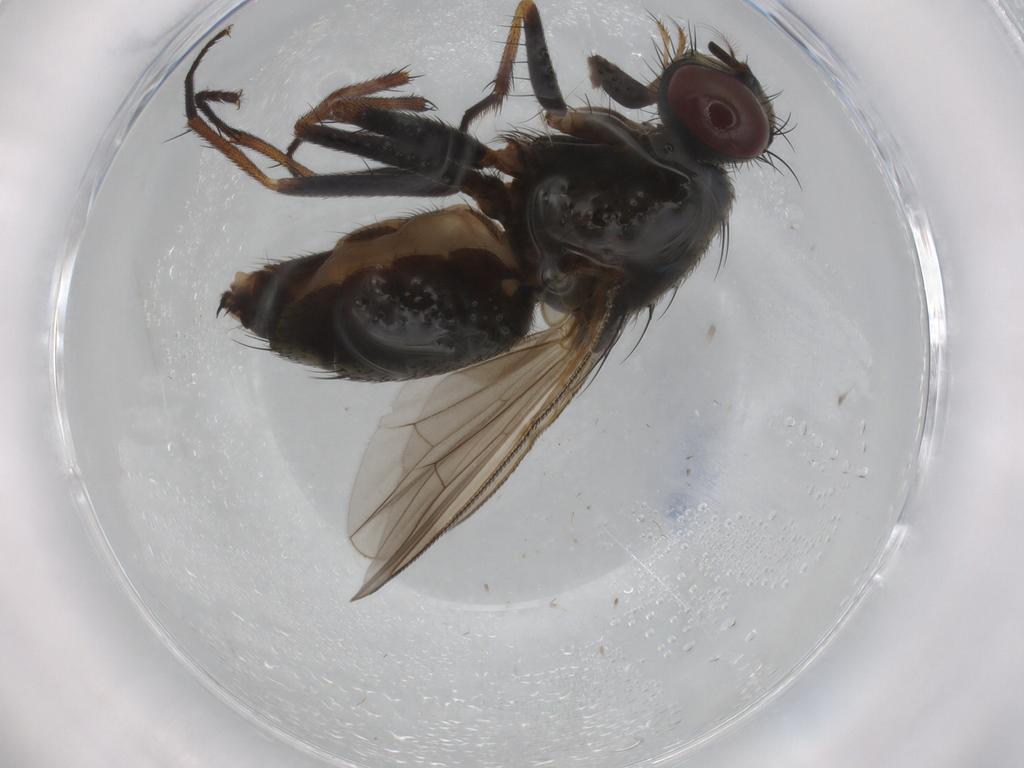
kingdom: Animalia
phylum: Arthropoda
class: Insecta
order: Diptera
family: Muscidae
